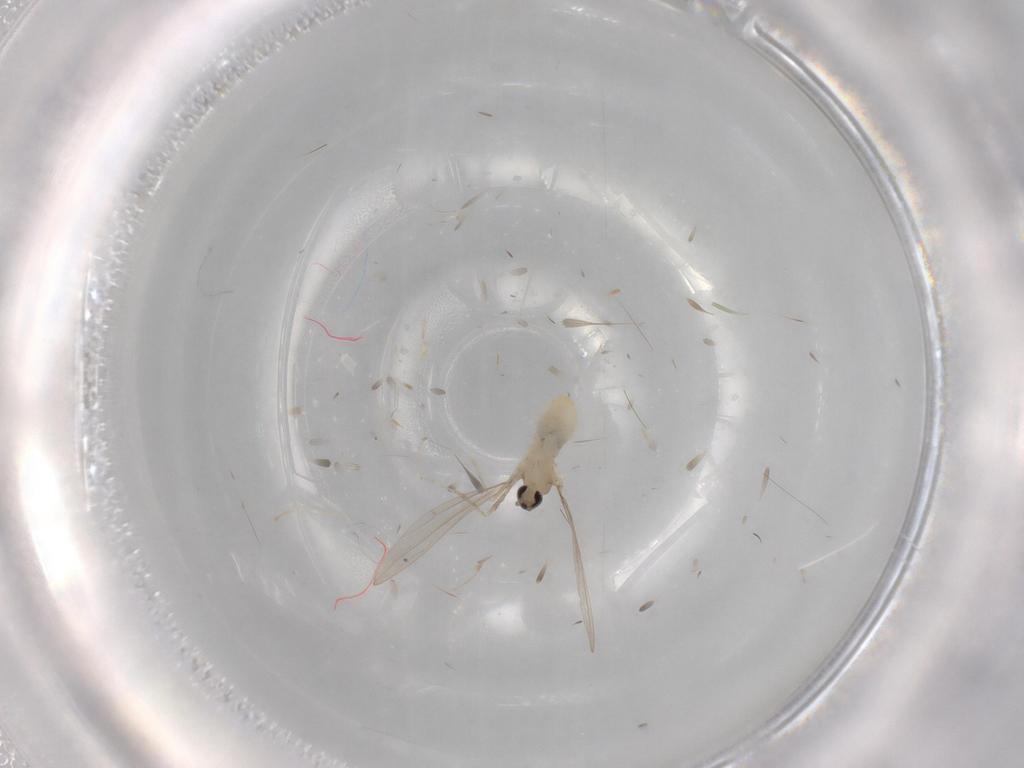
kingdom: Animalia
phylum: Arthropoda
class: Insecta
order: Diptera
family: Cecidomyiidae
